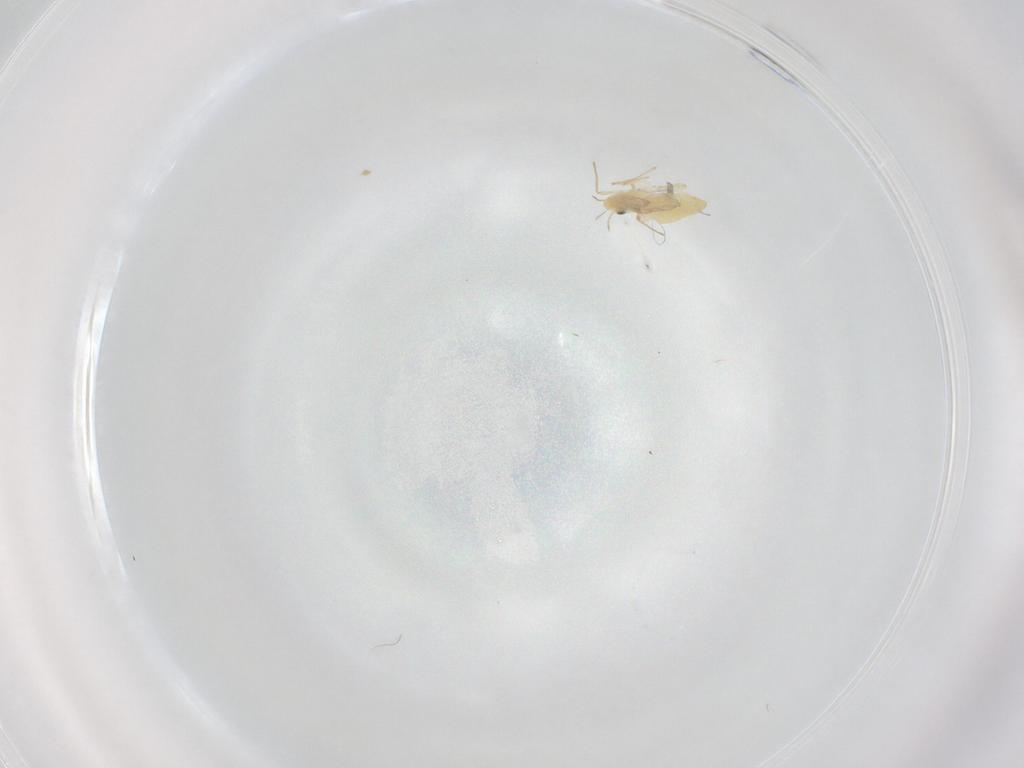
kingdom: Animalia
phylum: Arthropoda
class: Insecta
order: Diptera
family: Chironomidae
